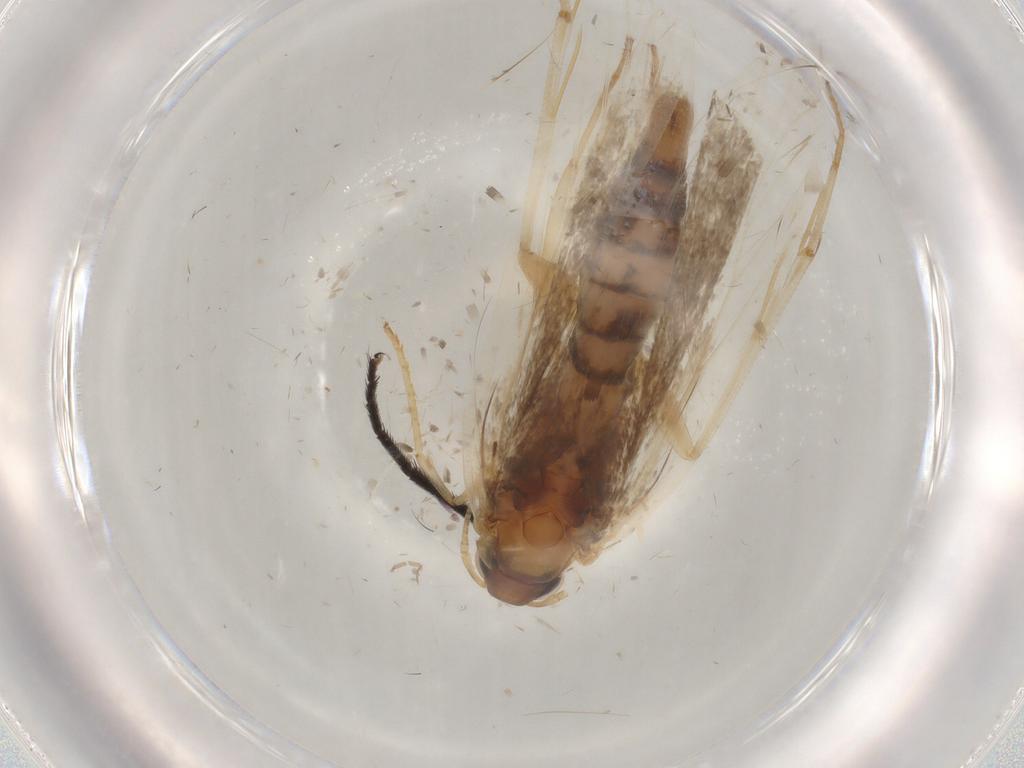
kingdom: Animalia
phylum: Arthropoda
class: Insecta
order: Lepidoptera
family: Gelechiidae
